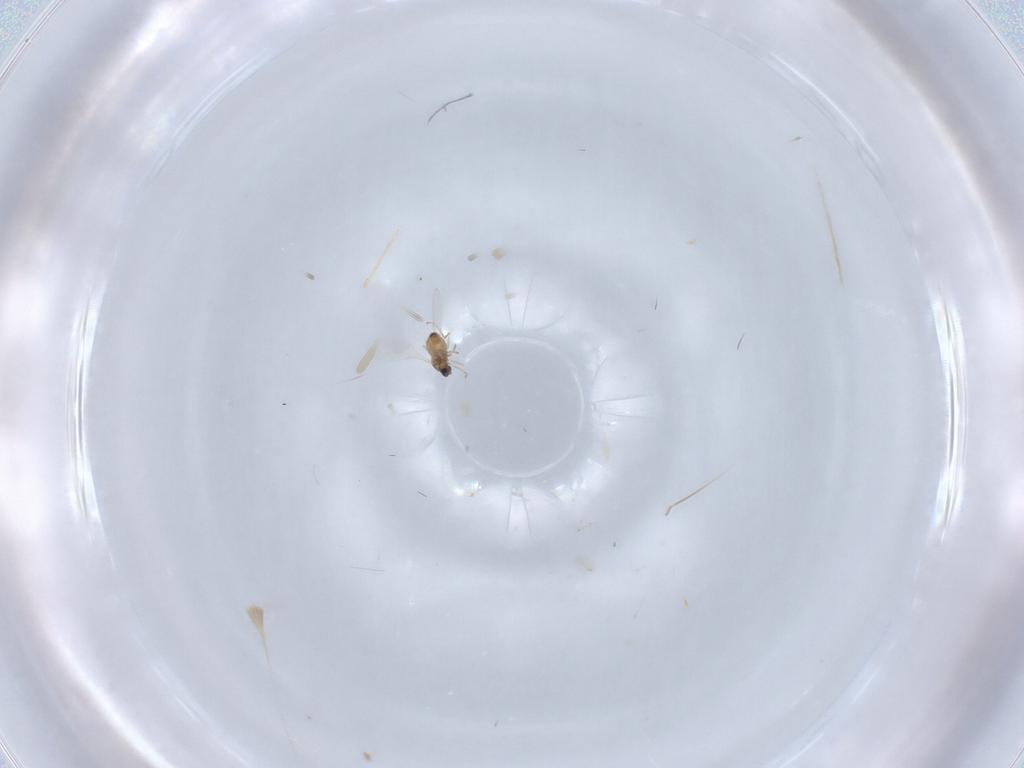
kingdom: Animalia
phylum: Arthropoda
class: Insecta
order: Diptera
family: Cecidomyiidae
